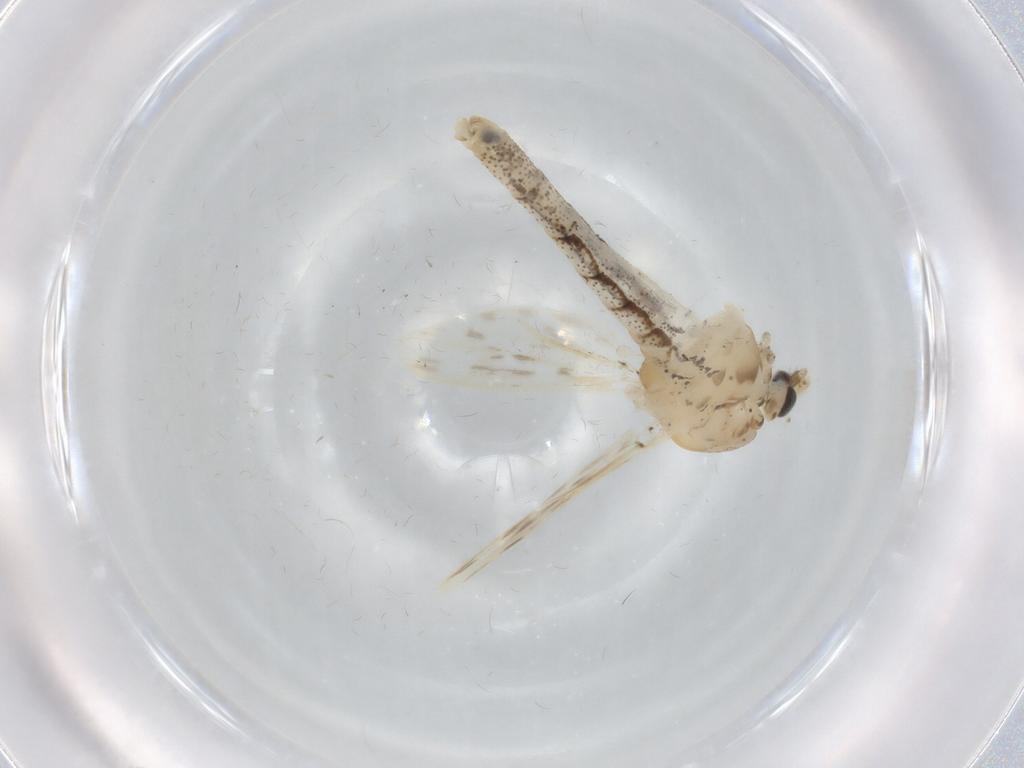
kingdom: Animalia
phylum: Arthropoda
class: Insecta
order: Diptera
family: Chaoboridae
